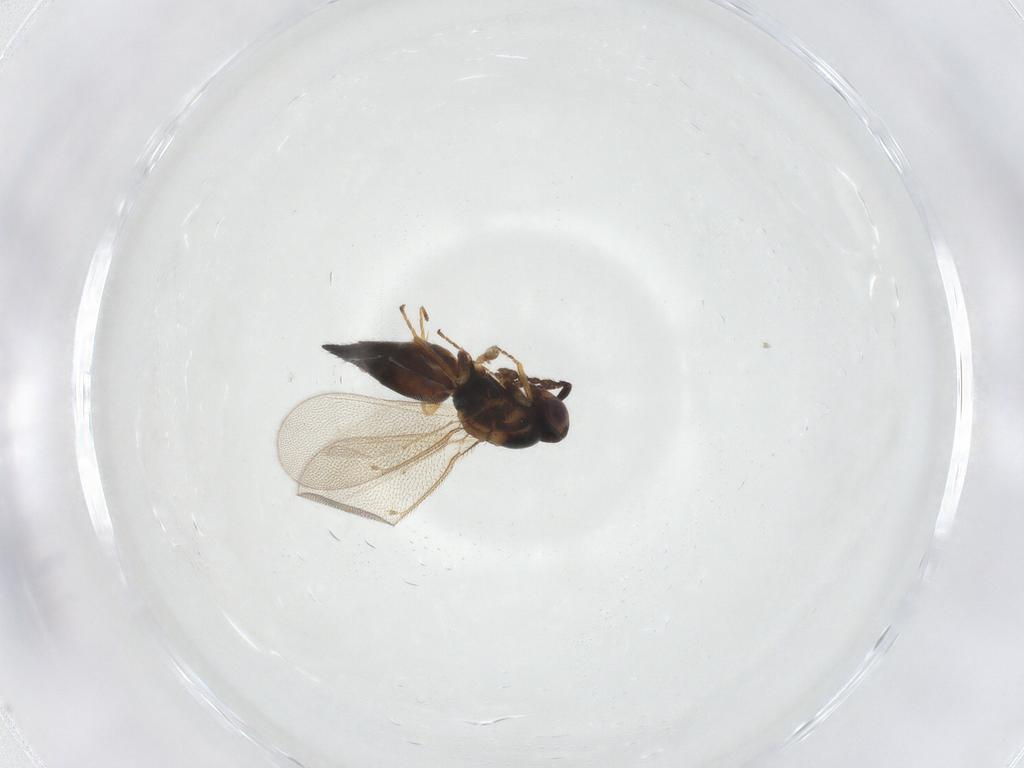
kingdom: Animalia
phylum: Arthropoda
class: Insecta
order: Hymenoptera
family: Eulophidae
